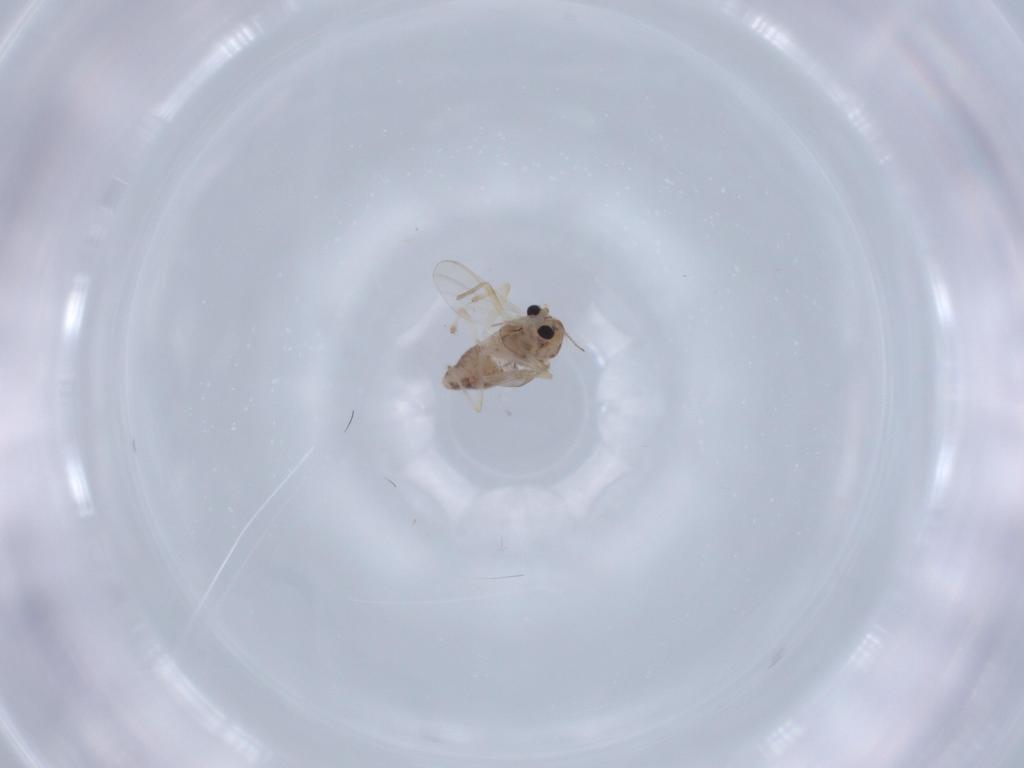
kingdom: Animalia
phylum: Arthropoda
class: Insecta
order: Diptera
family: Chironomidae
